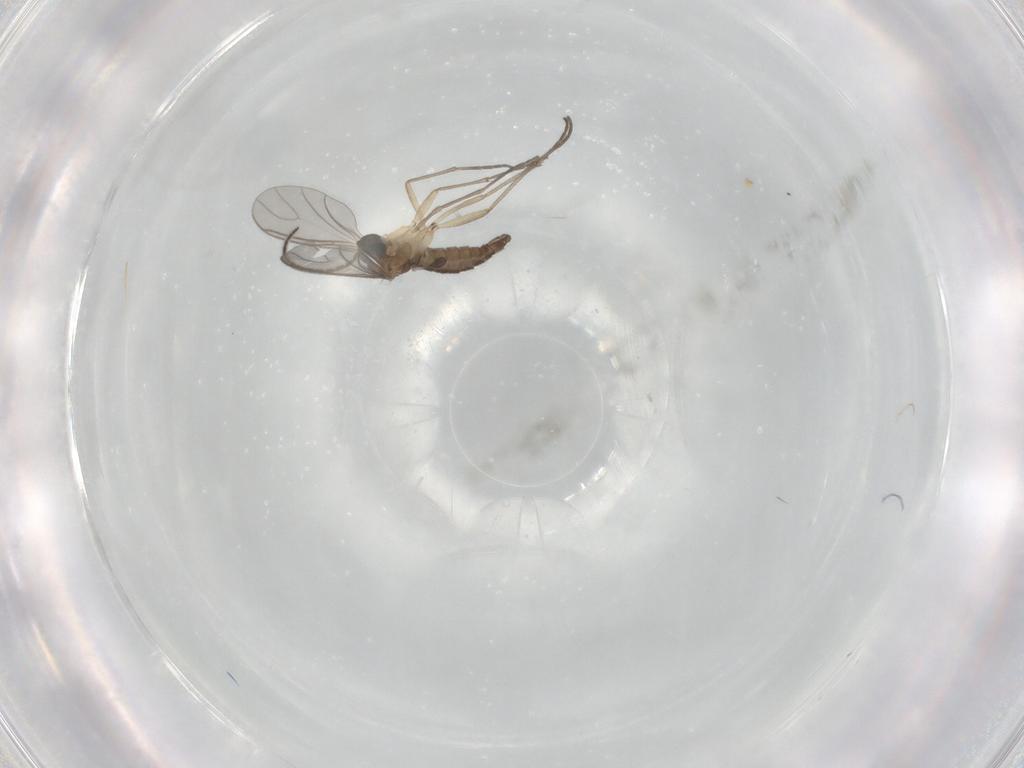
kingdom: Animalia
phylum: Arthropoda
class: Insecta
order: Diptera
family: Sciaridae
